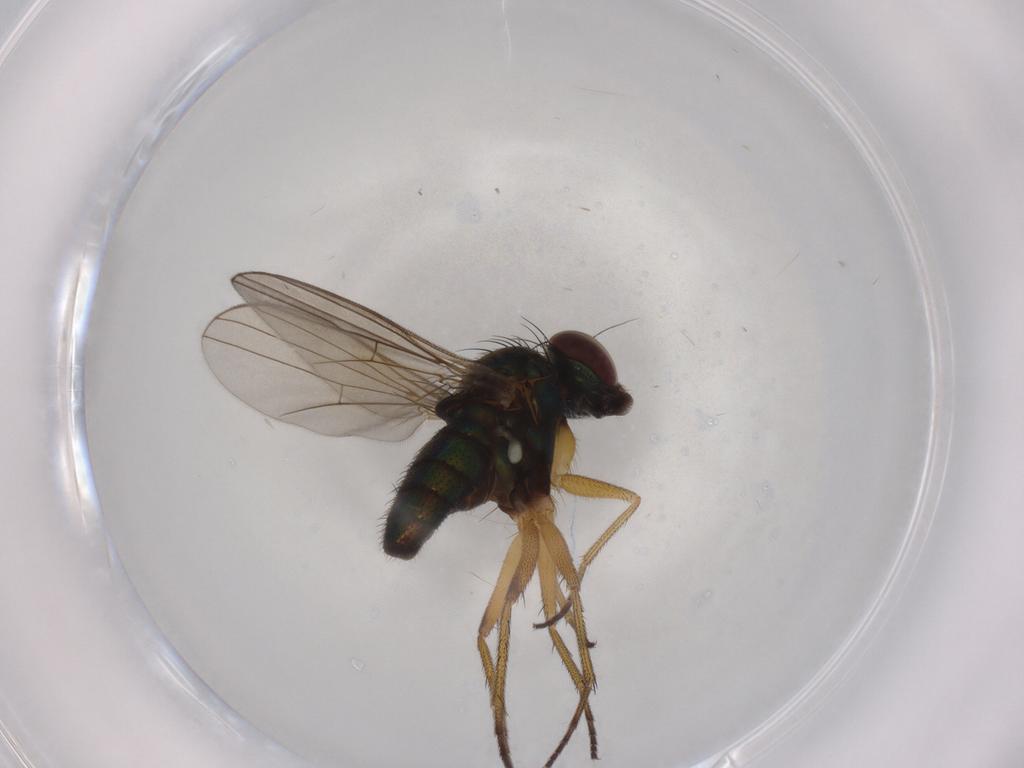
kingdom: Animalia
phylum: Arthropoda
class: Insecta
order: Diptera
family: Dolichopodidae
